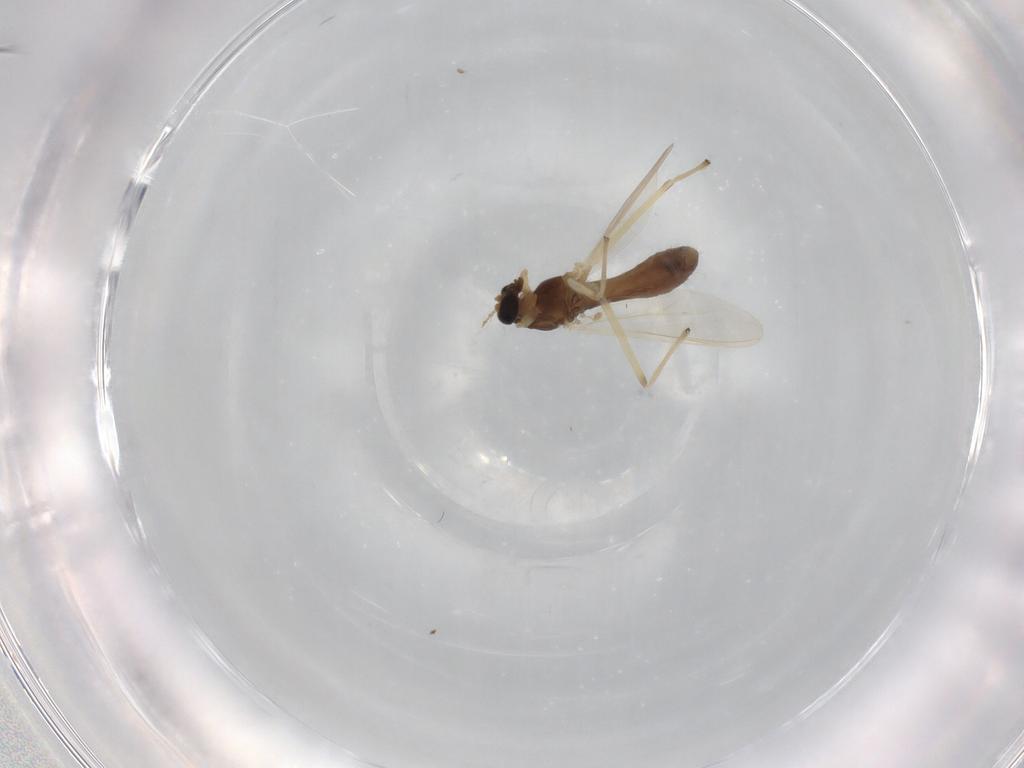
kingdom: Animalia
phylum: Arthropoda
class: Insecta
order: Diptera
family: Chironomidae
